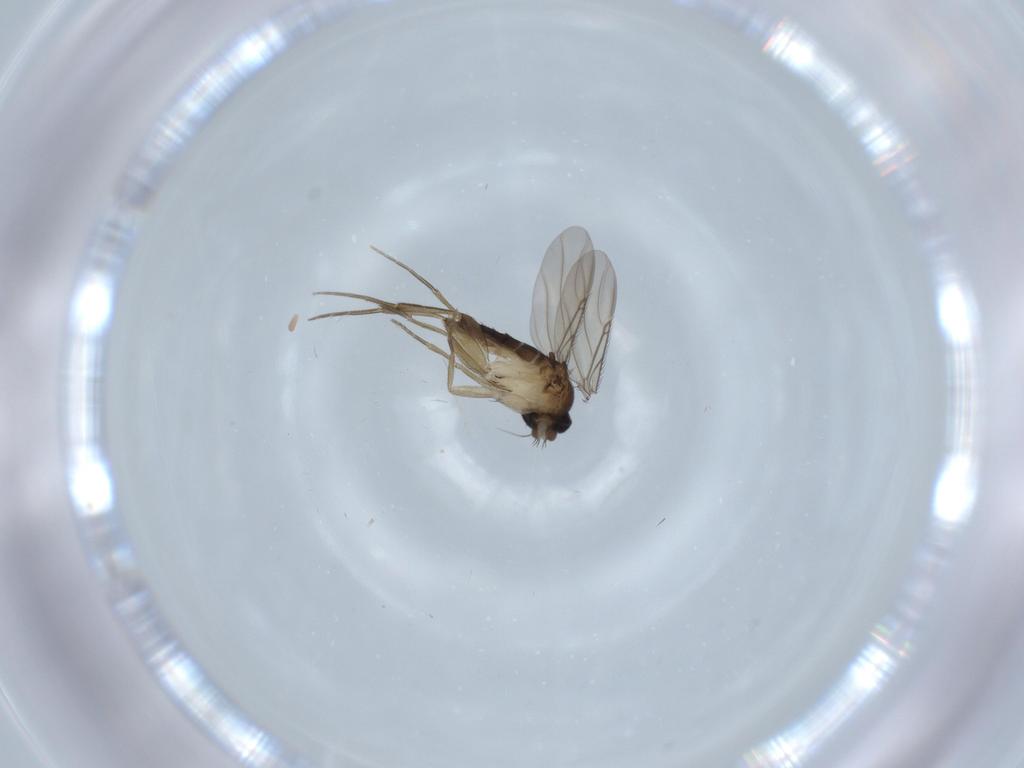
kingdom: Animalia
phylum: Arthropoda
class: Insecta
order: Diptera
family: Phoridae
